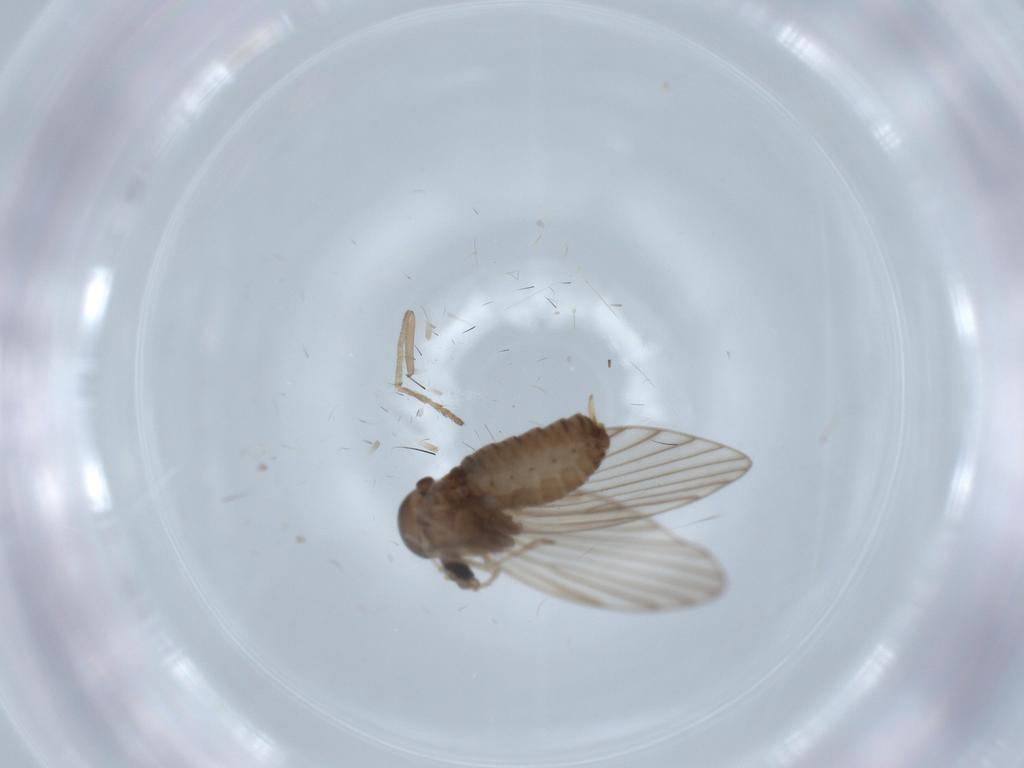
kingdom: Animalia
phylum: Arthropoda
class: Insecta
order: Diptera
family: Psychodidae
